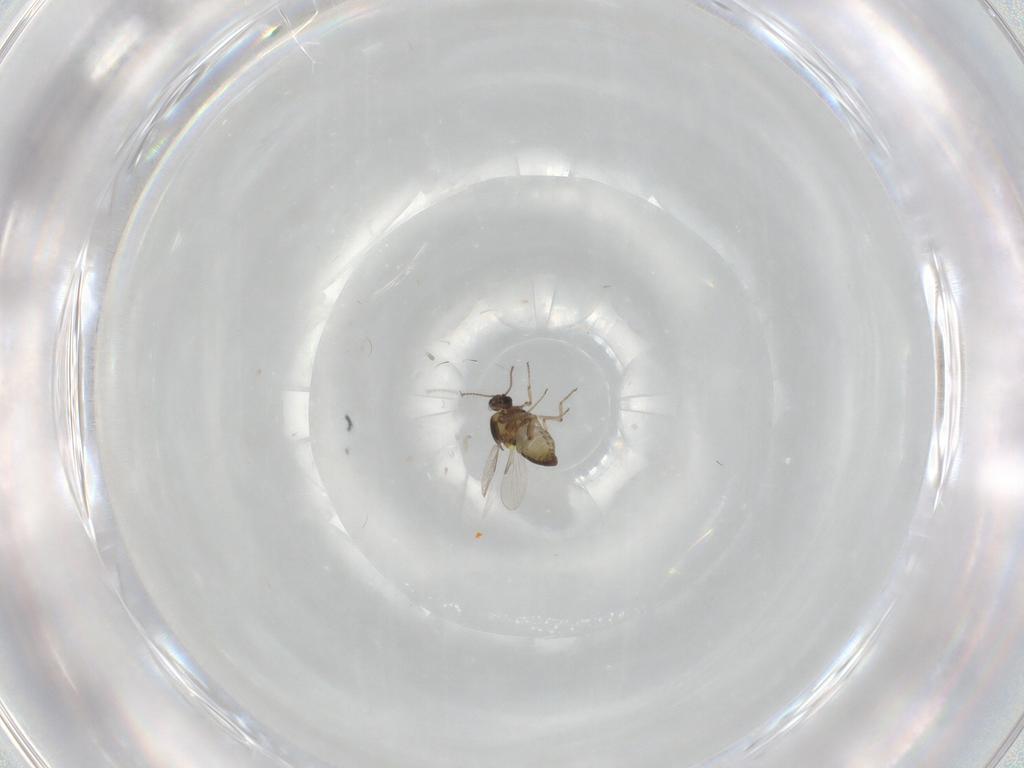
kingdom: Animalia
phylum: Arthropoda
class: Insecta
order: Diptera
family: Ceratopogonidae
